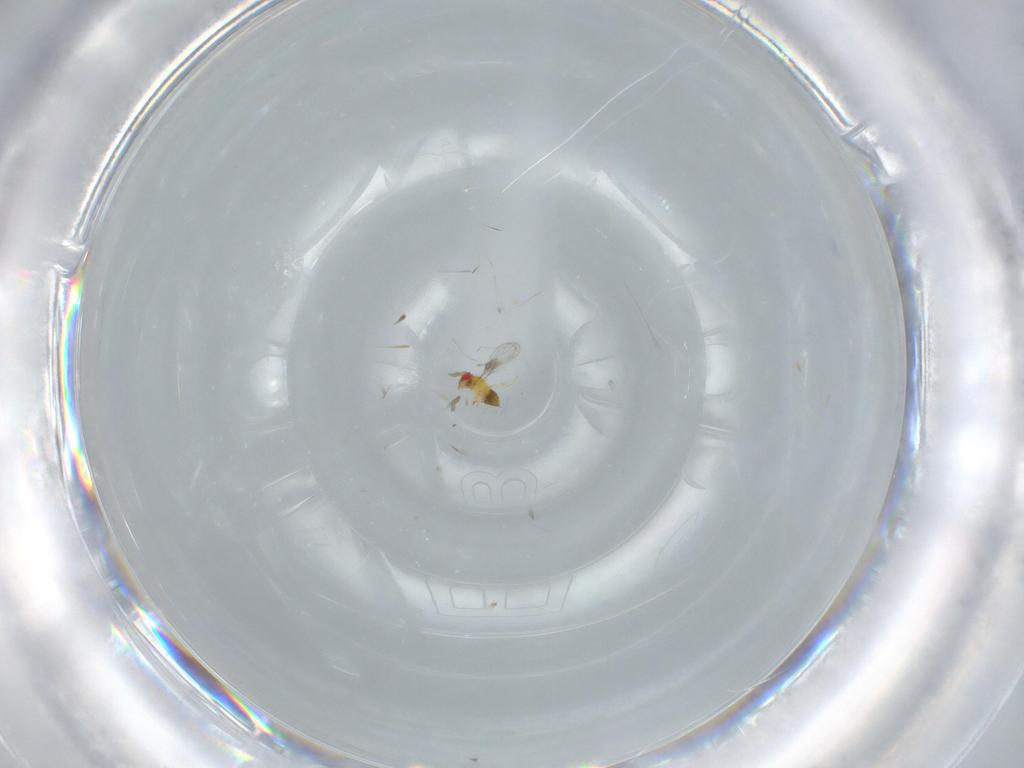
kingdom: Animalia
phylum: Arthropoda
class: Insecta
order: Hymenoptera
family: Trichogrammatidae
